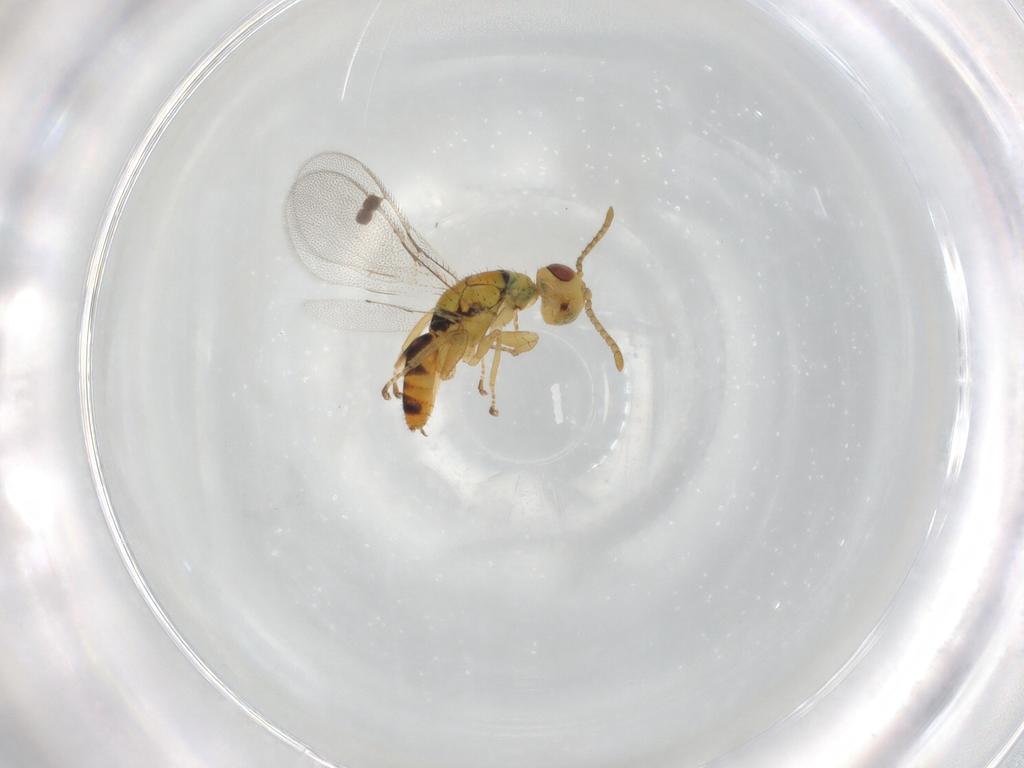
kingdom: Animalia
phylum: Arthropoda
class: Insecta
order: Hymenoptera
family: Megastigmidae
